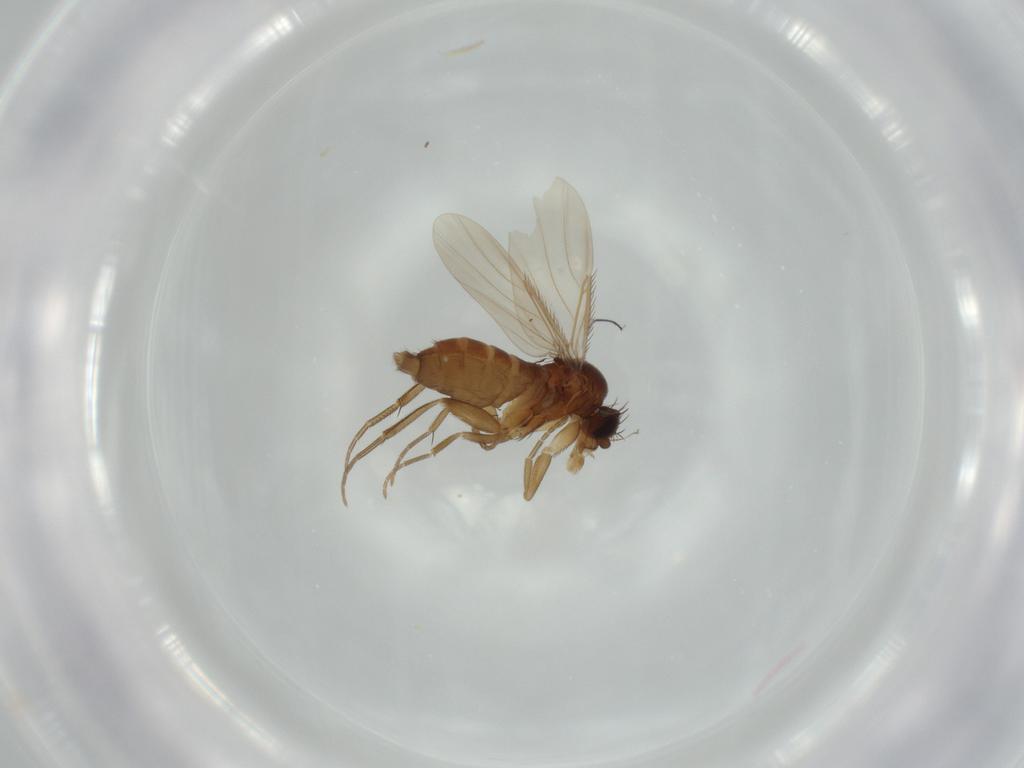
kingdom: Animalia
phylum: Arthropoda
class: Insecta
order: Diptera
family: Phoridae
